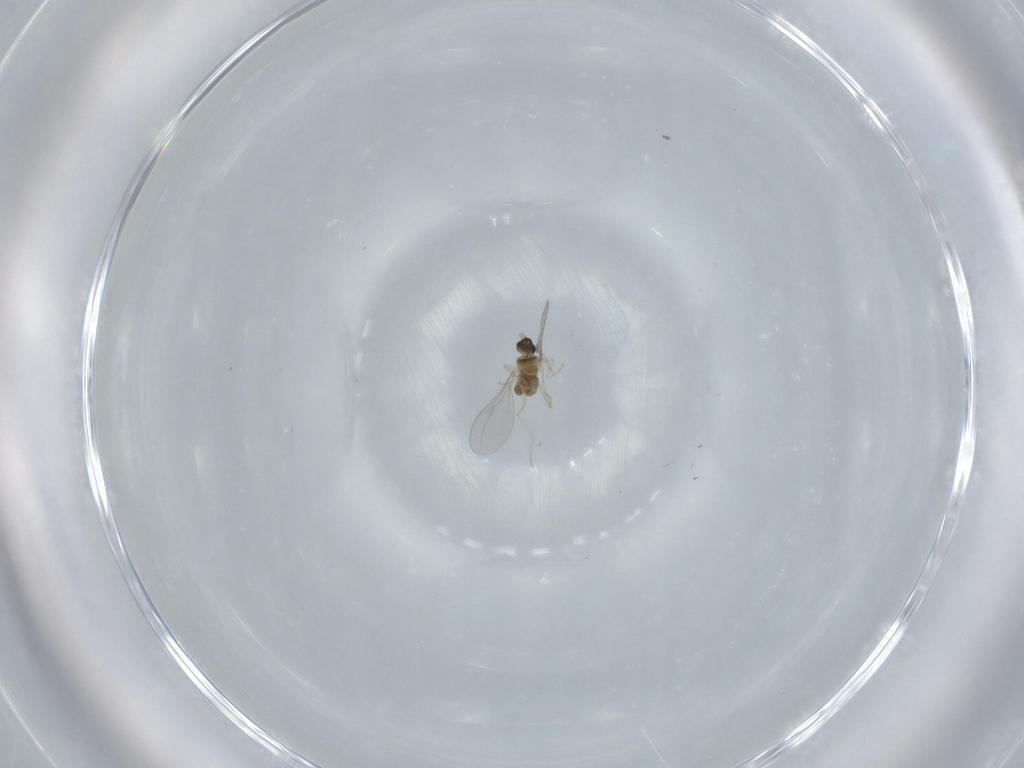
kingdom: Animalia
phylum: Arthropoda
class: Insecta
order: Diptera
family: Cecidomyiidae
